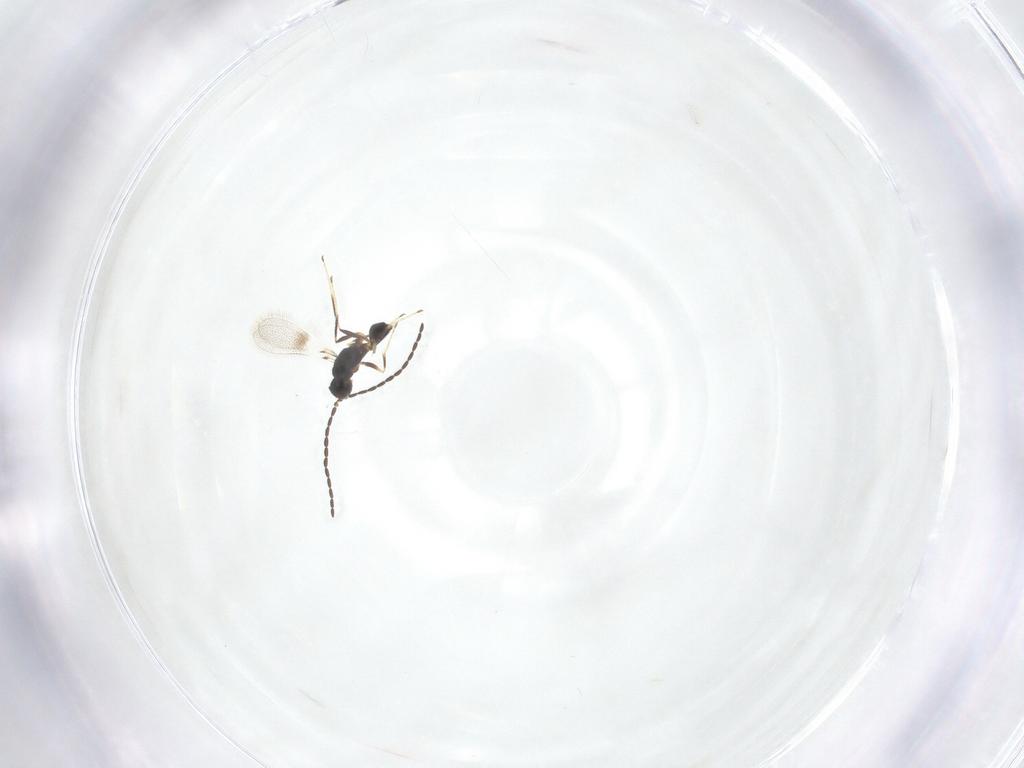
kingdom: Animalia
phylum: Arthropoda
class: Insecta
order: Hymenoptera
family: Mymaridae
